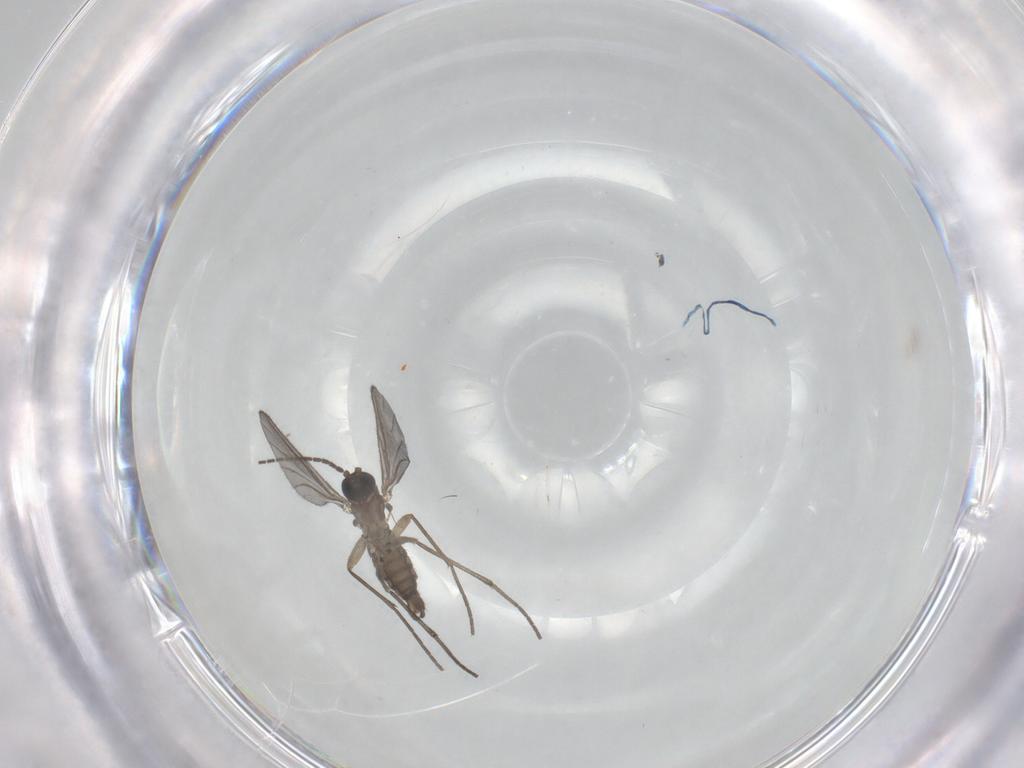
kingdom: Animalia
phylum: Arthropoda
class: Insecta
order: Diptera
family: Sciaridae
